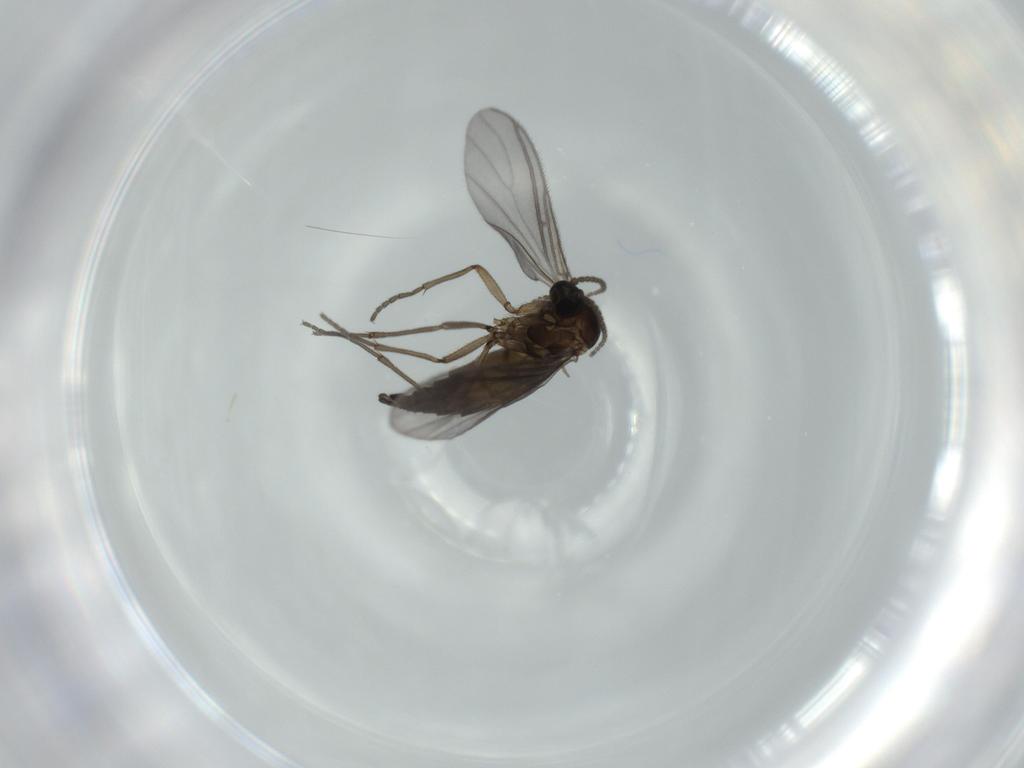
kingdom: Animalia
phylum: Arthropoda
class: Insecta
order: Diptera
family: Sciaridae
